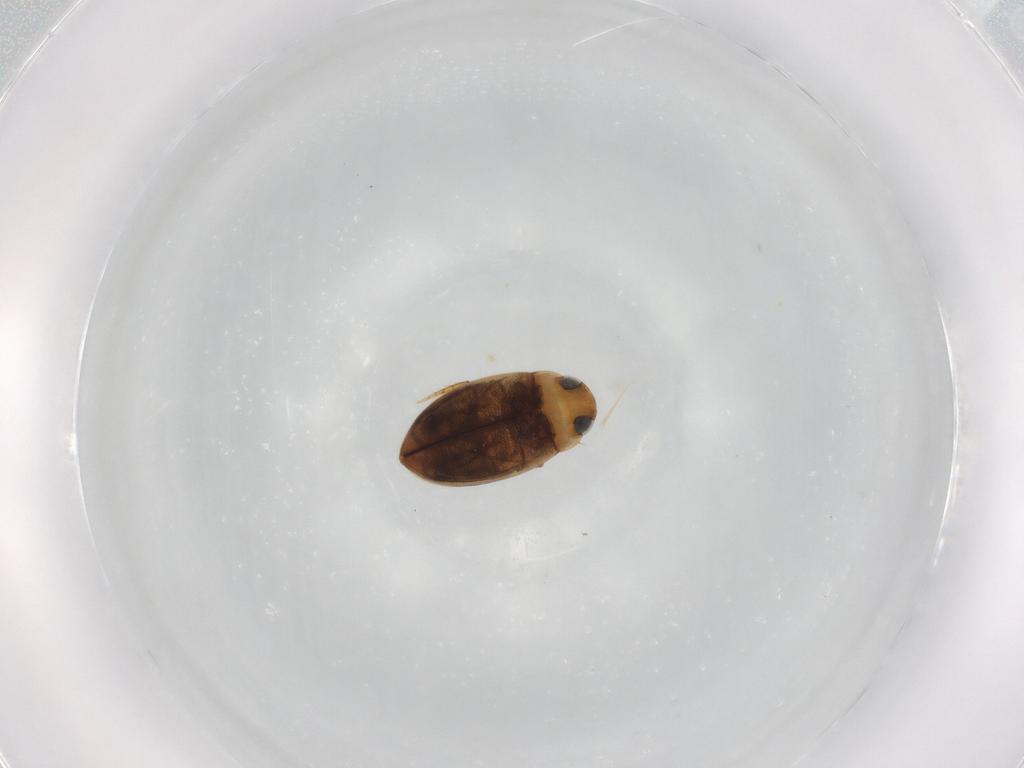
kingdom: Animalia
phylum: Arthropoda
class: Insecta
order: Coleoptera
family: Dytiscidae
